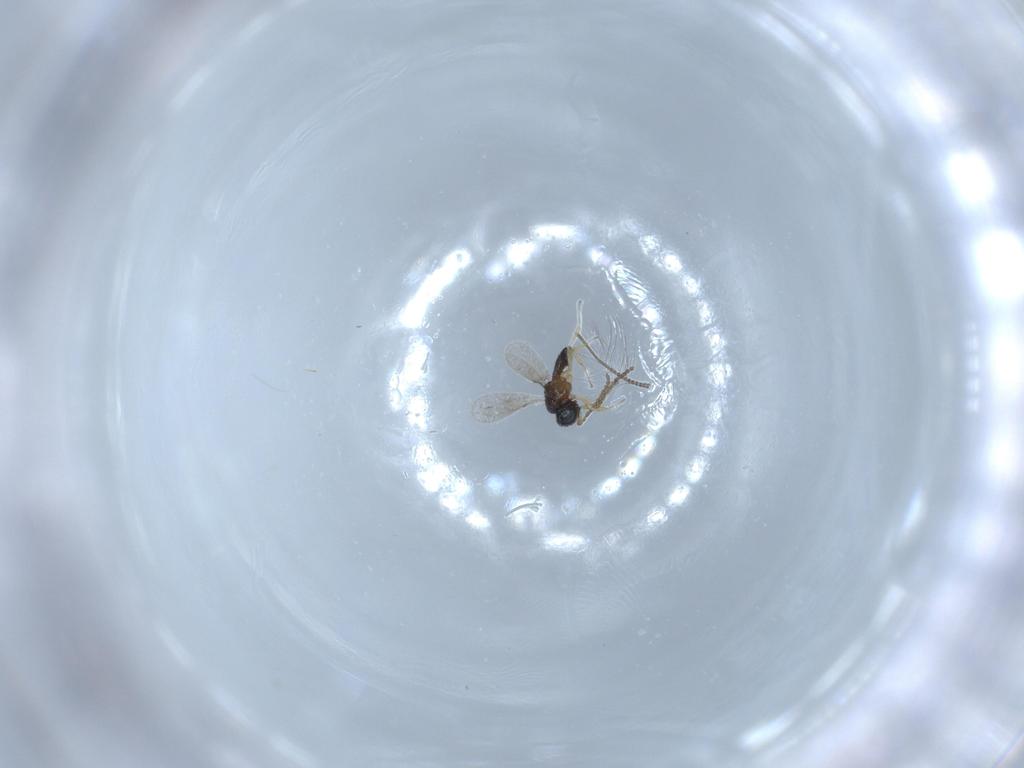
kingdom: Animalia
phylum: Arthropoda
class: Insecta
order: Hymenoptera
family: Scelionidae
